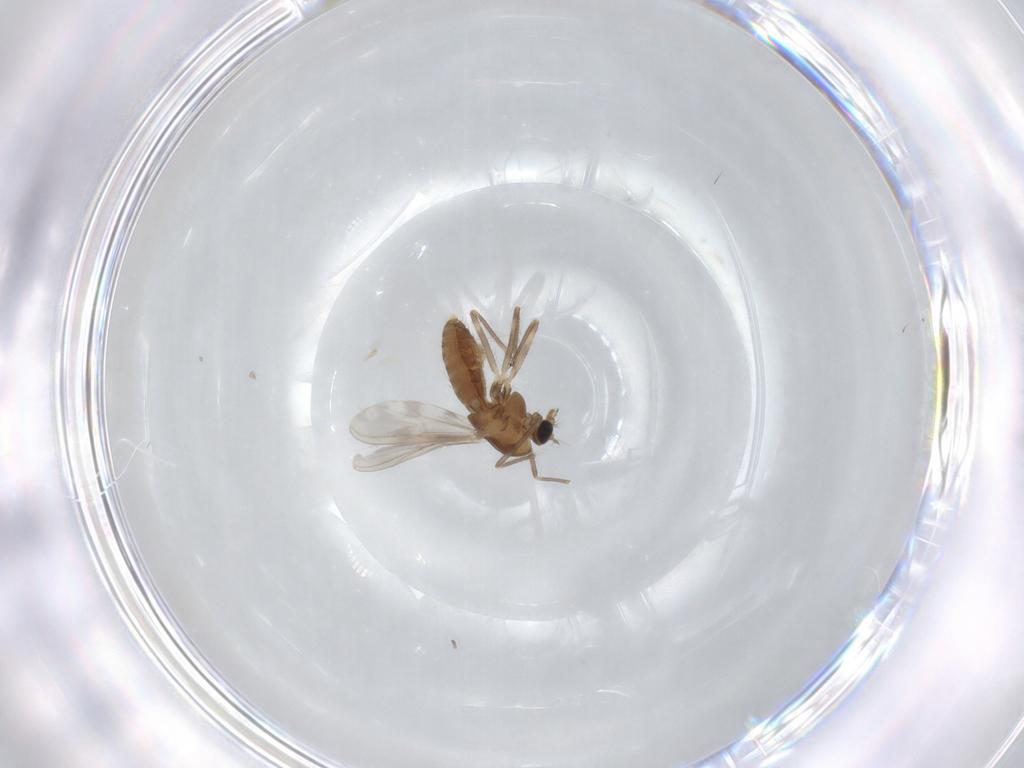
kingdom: Animalia
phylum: Arthropoda
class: Insecta
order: Diptera
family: Chironomidae
